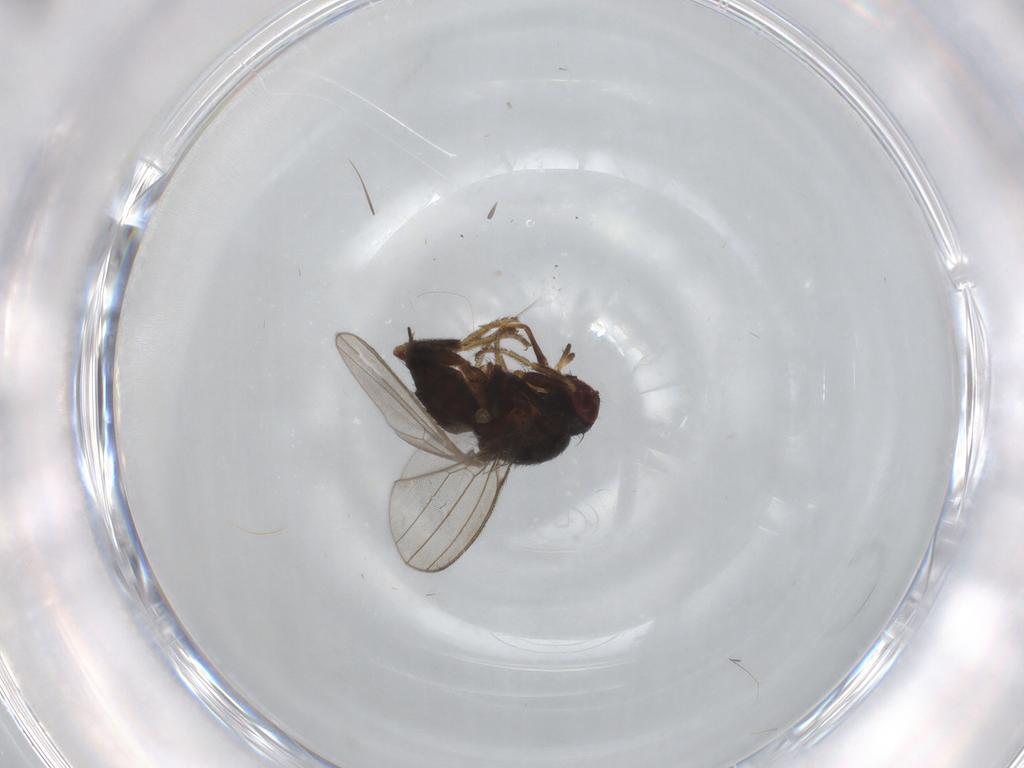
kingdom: Animalia
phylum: Arthropoda
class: Insecta
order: Diptera
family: Milichiidae
